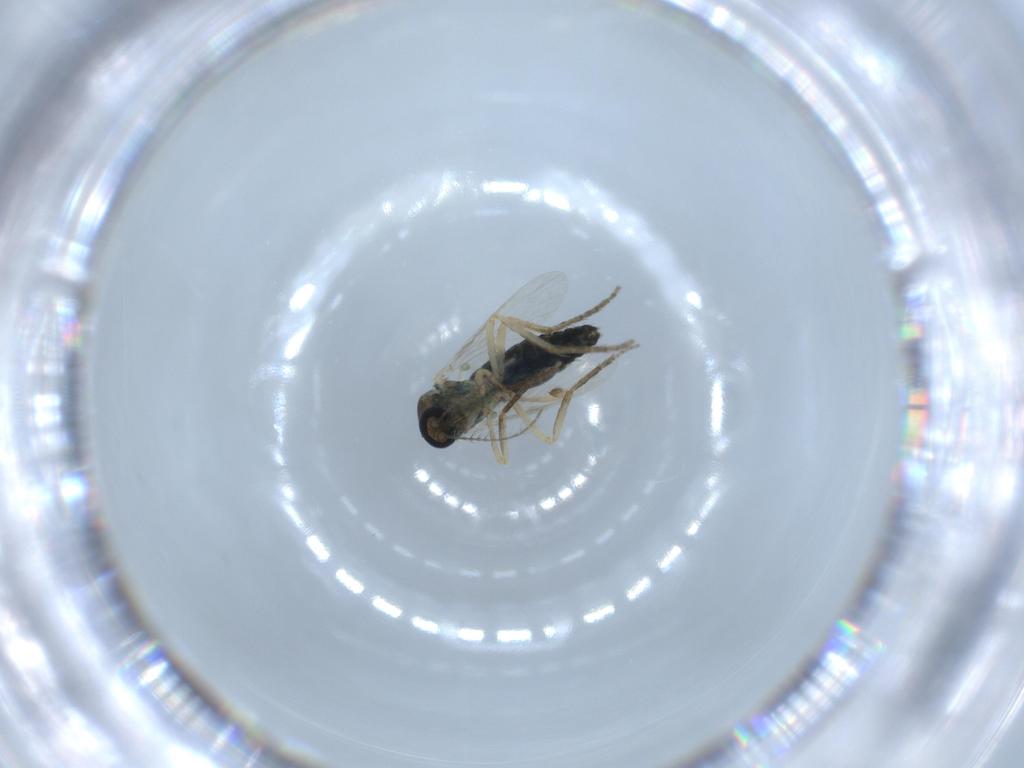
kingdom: Animalia
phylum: Arthropoda
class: Insecta
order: Diptera
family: Ceratopogonidae
